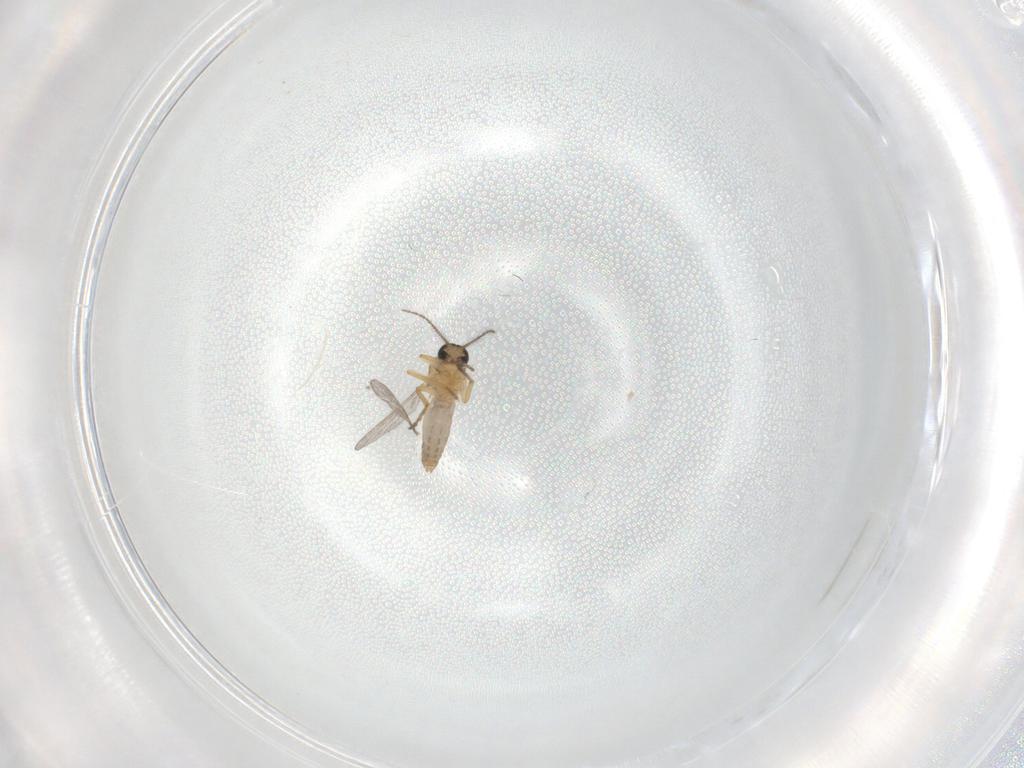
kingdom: Animalia
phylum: Arthropoda
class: Insecta
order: Diptera
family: Ceratopogonidae
